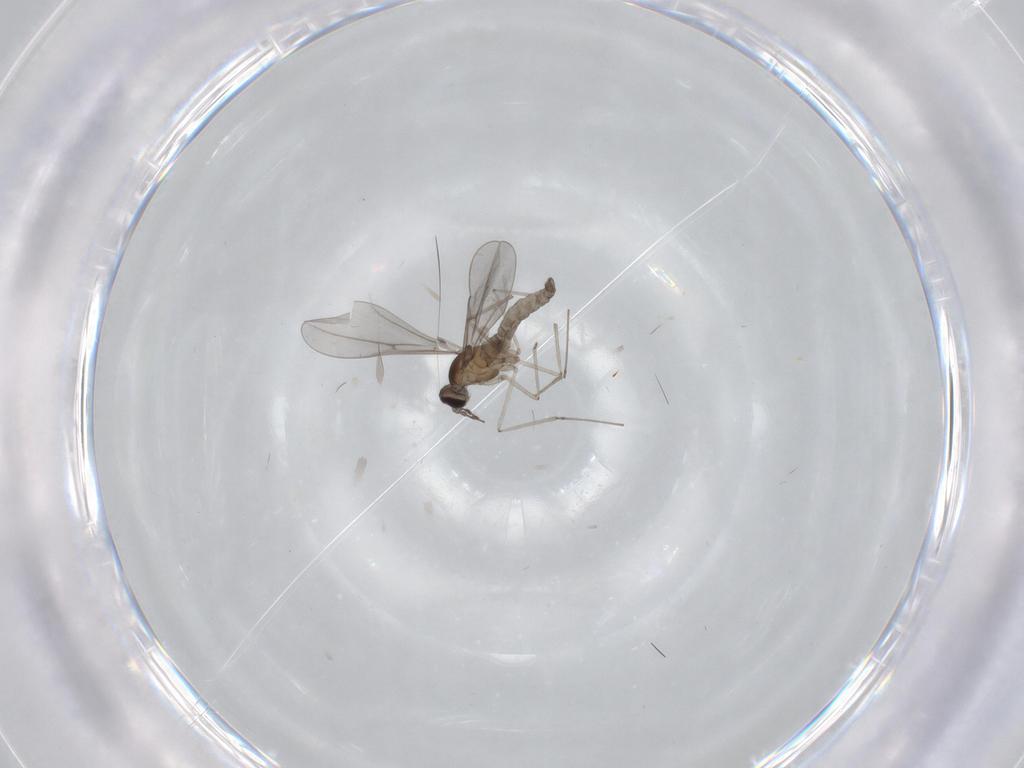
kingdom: Animalia
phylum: Arthropoda
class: Insecta
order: Diptera
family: Cecidomyiidae
